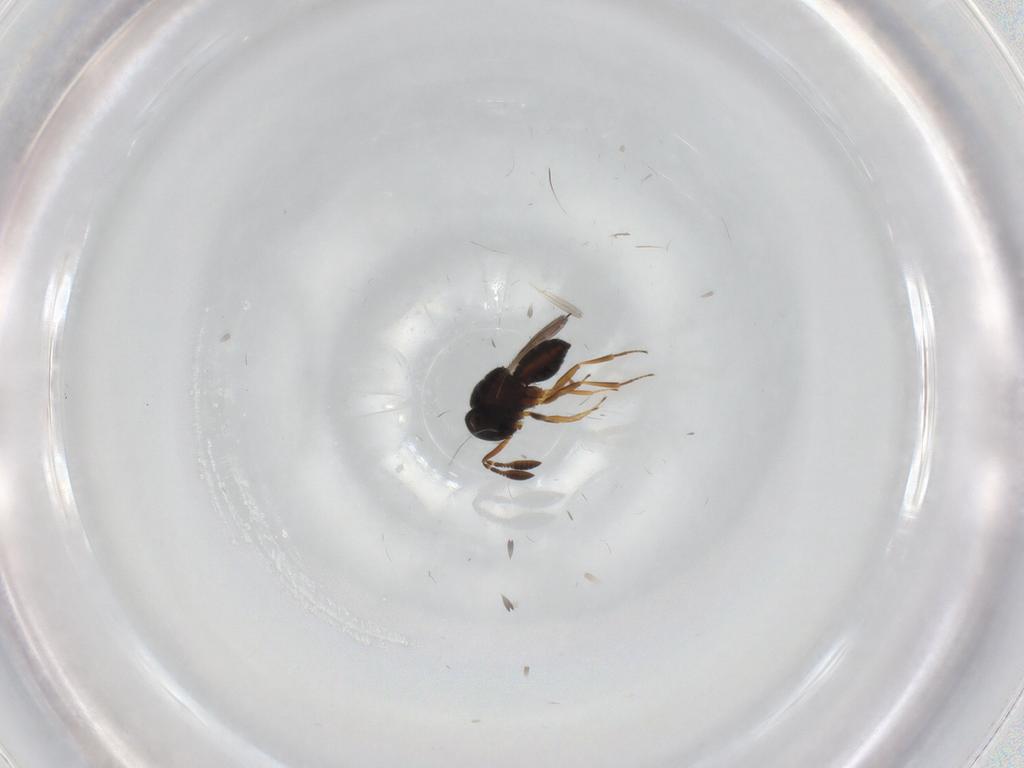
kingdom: Animalia
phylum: Arthropoda
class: Insecta
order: Hymenoptera
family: Scelionidae
